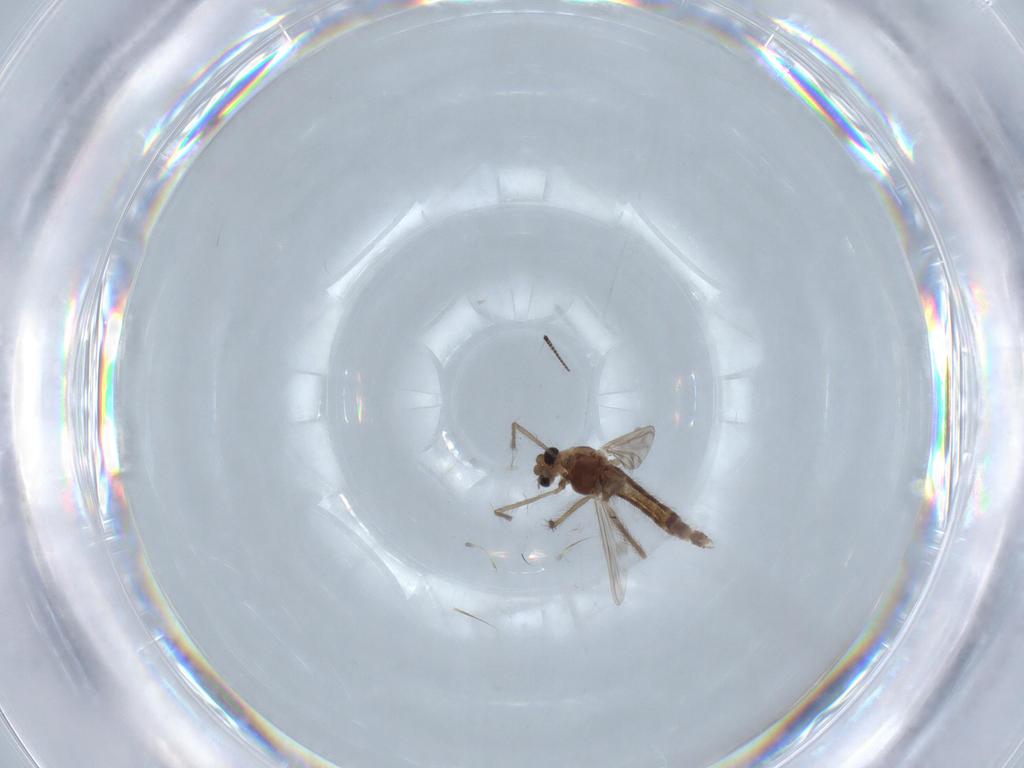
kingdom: Animalia
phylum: Arthropoda
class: Insecta
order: Diptera
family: Chironomidae
